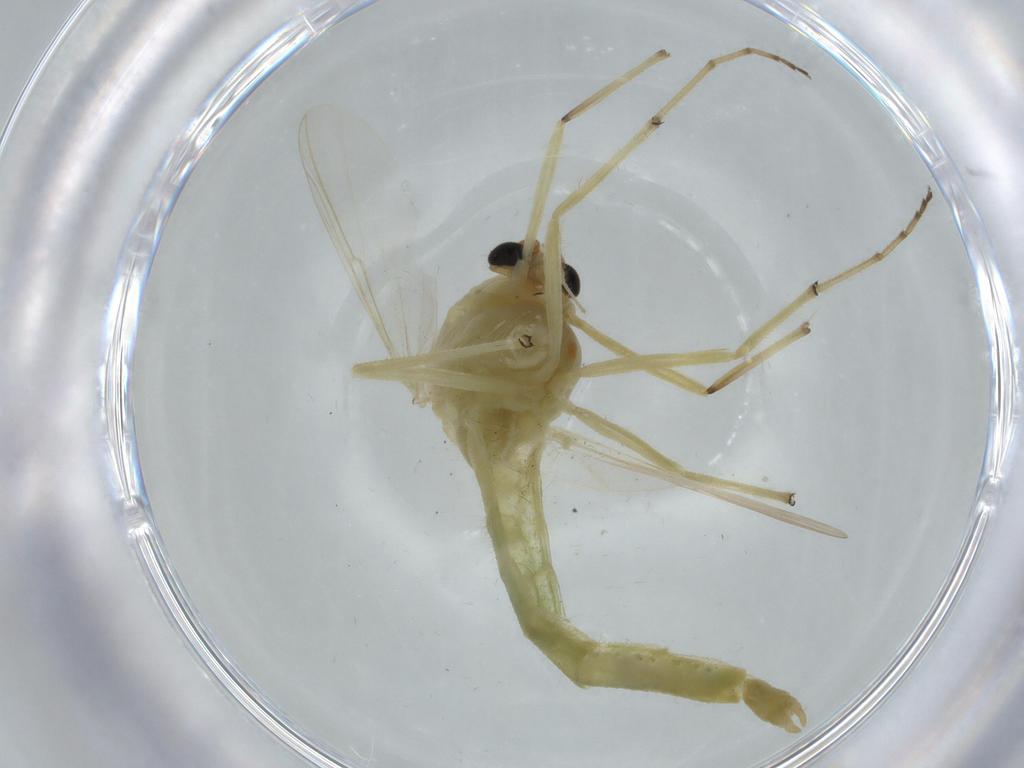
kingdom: Animalia
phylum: Arthropoda
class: Insecta
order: Diptera
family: Chironomidae
